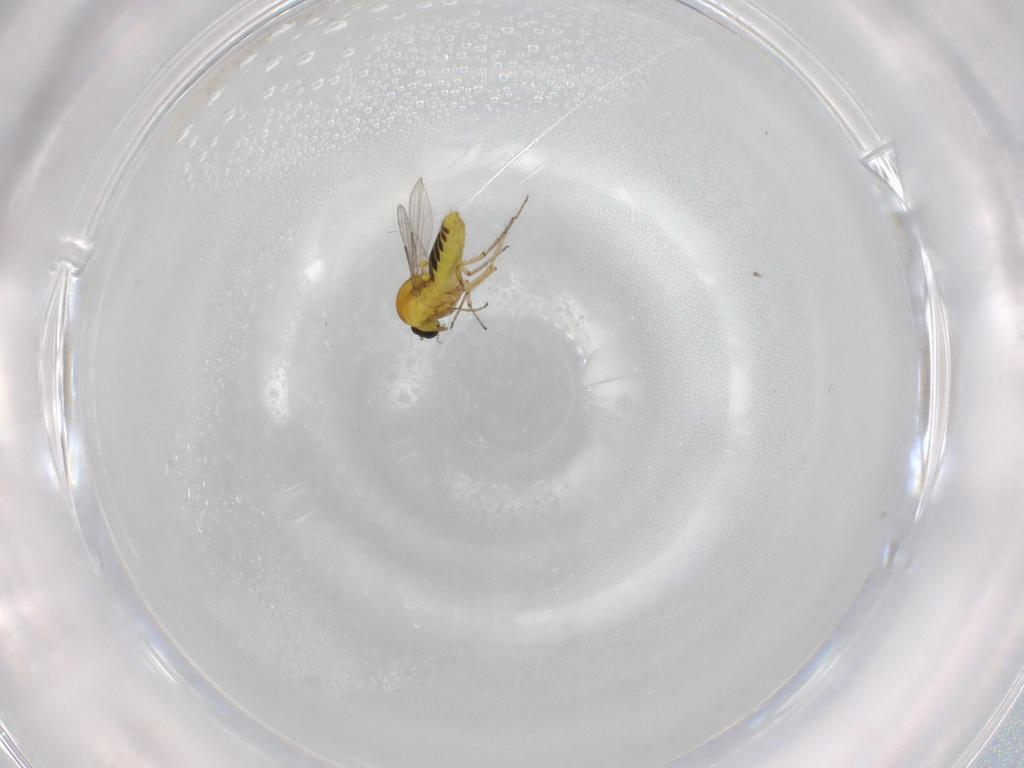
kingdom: Animalia
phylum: Arthropoda
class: Insecta
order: Diptera
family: Ceratopogonidae
